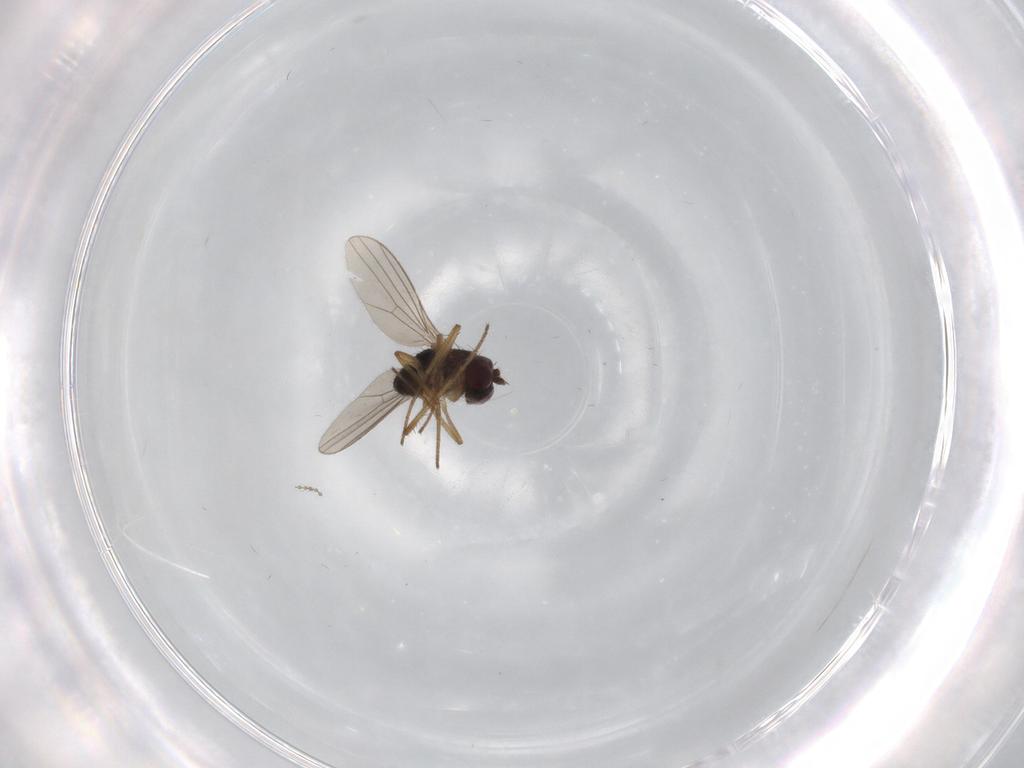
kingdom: Animalia
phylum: Arthropoda
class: Insecta
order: Diptera
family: Dolichopodidae
